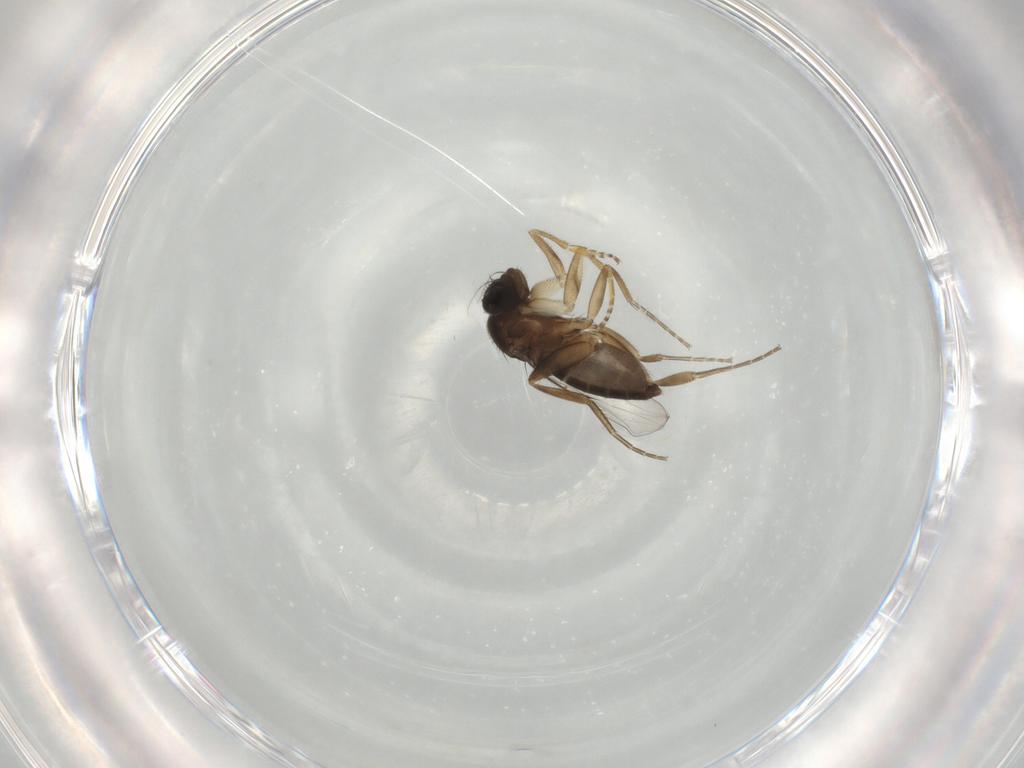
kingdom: Animalia
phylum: Arthropoda
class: Insecta
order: Diptera
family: Phoridae
